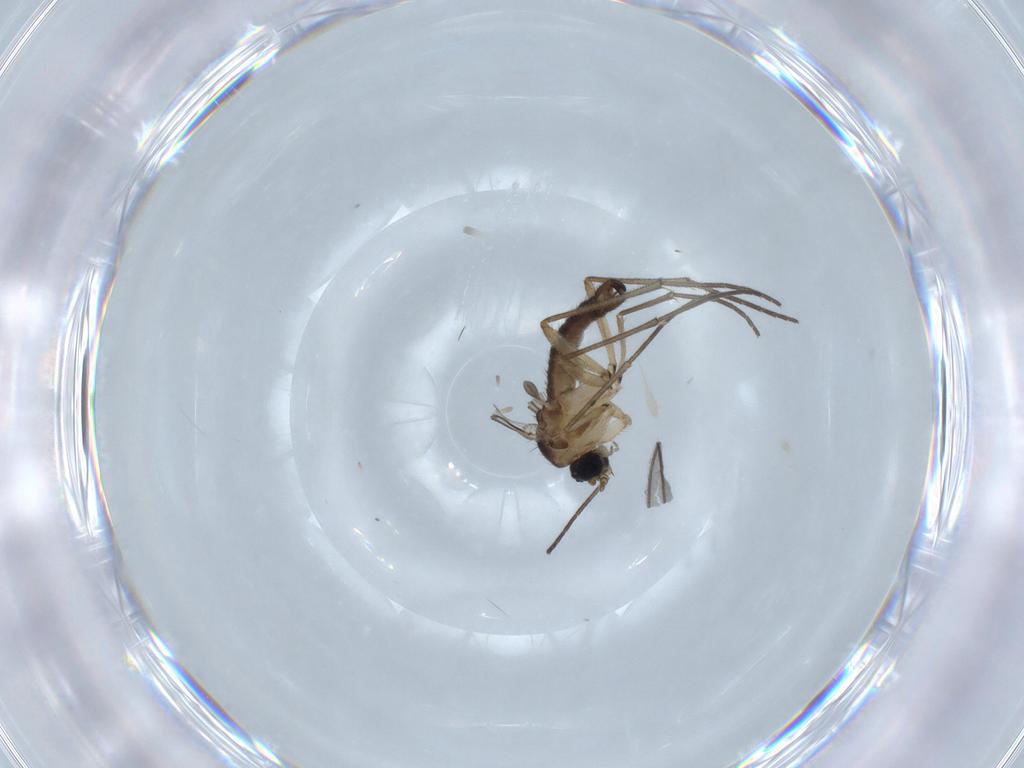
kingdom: Animalia
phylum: Arthropoda
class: Insecta
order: Diptera
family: Sciaridae
